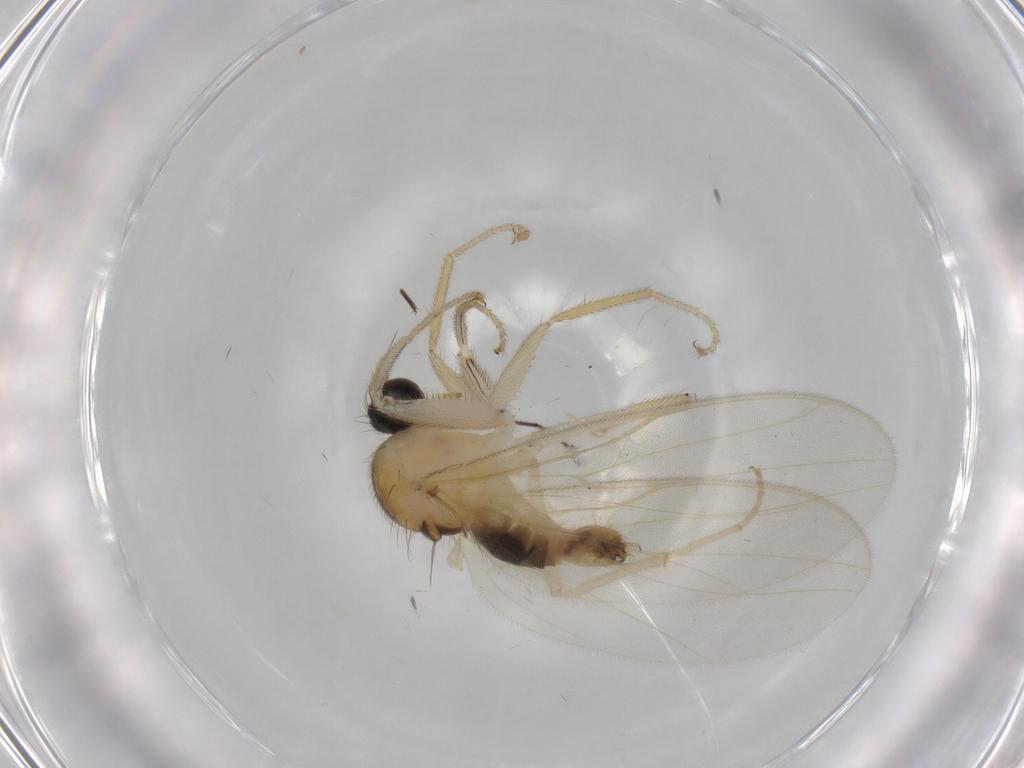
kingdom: Animalia
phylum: Arthropoda
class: Insecta
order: Diptera
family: Hybotidae
